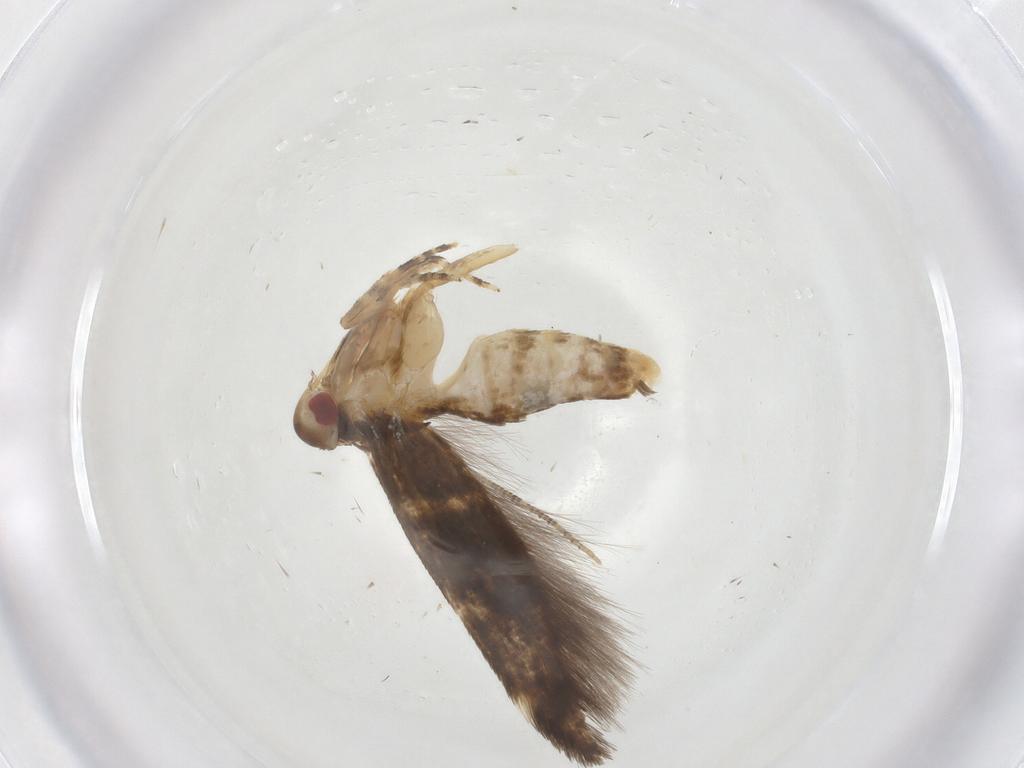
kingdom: Animalia
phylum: Arthropoda
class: Insecta
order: Lepidoptera
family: Cosmopterigidae
